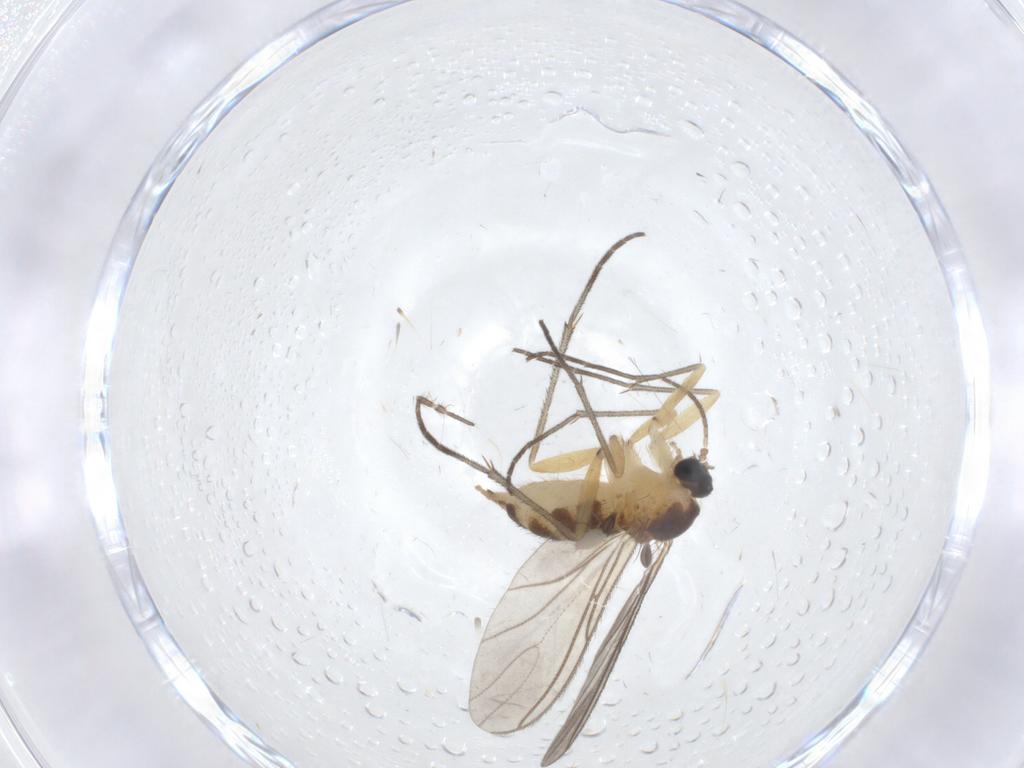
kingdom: Animalia
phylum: Arthropoda
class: Insecta
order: Diptera
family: Sciaridae
